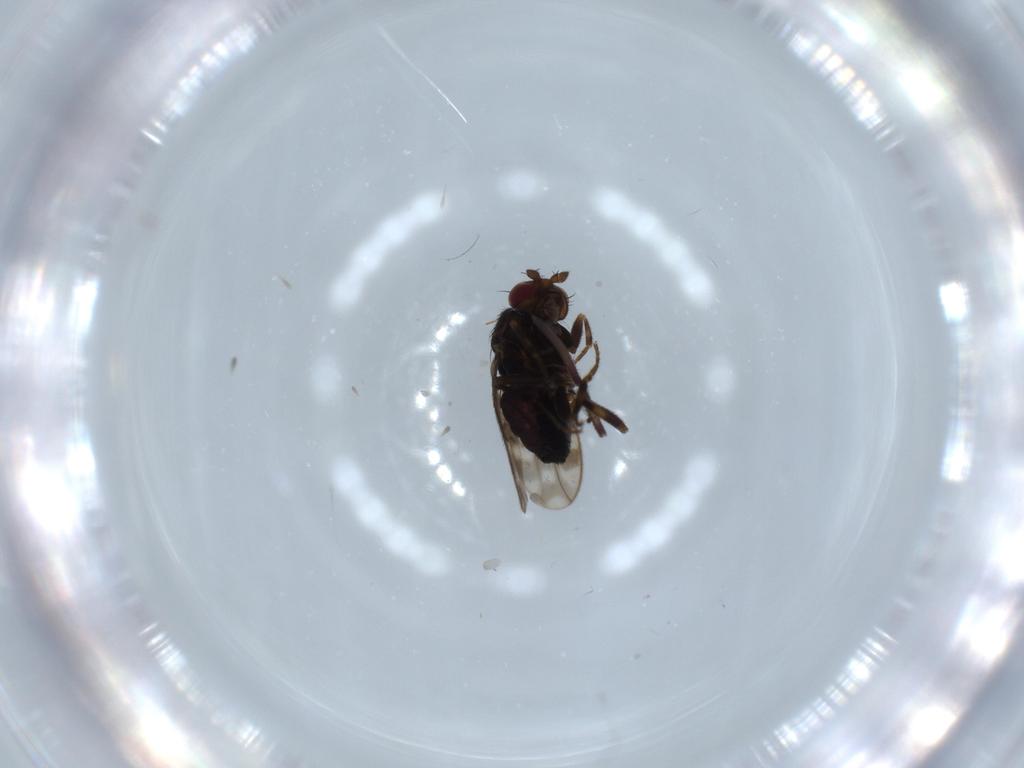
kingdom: Animalia
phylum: Arthropoda
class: Insecta
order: Diptera
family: Sphaeroceridae
